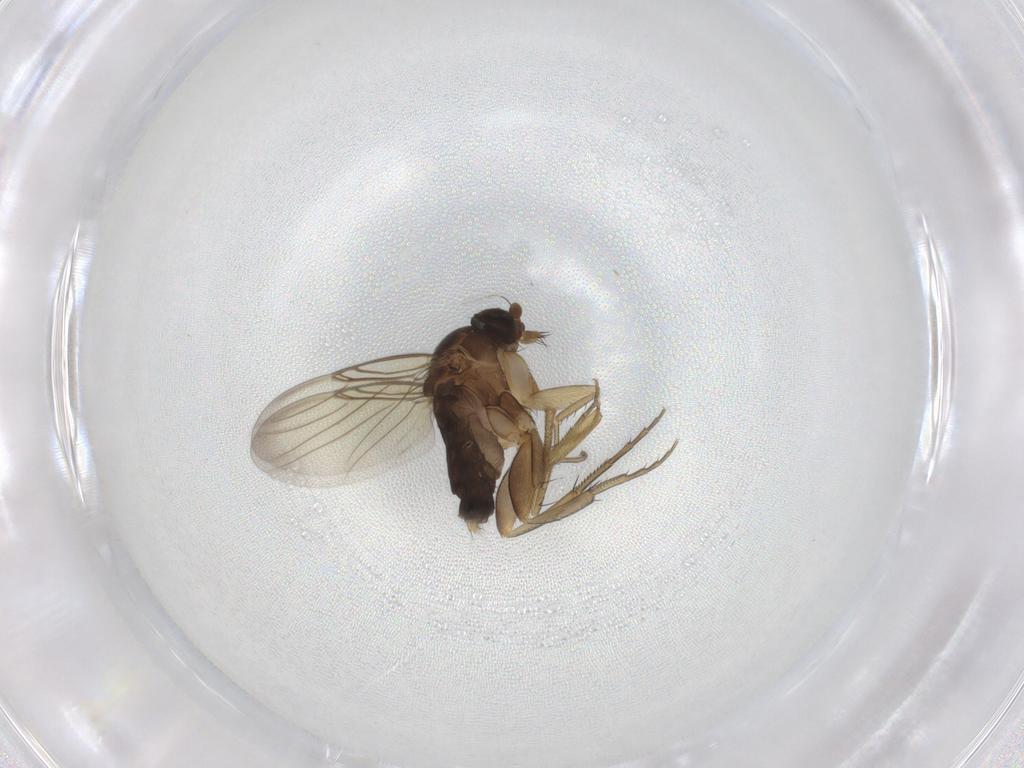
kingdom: Animalia
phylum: Arthropoda
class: Insecta
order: Diptera
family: Phoridae
